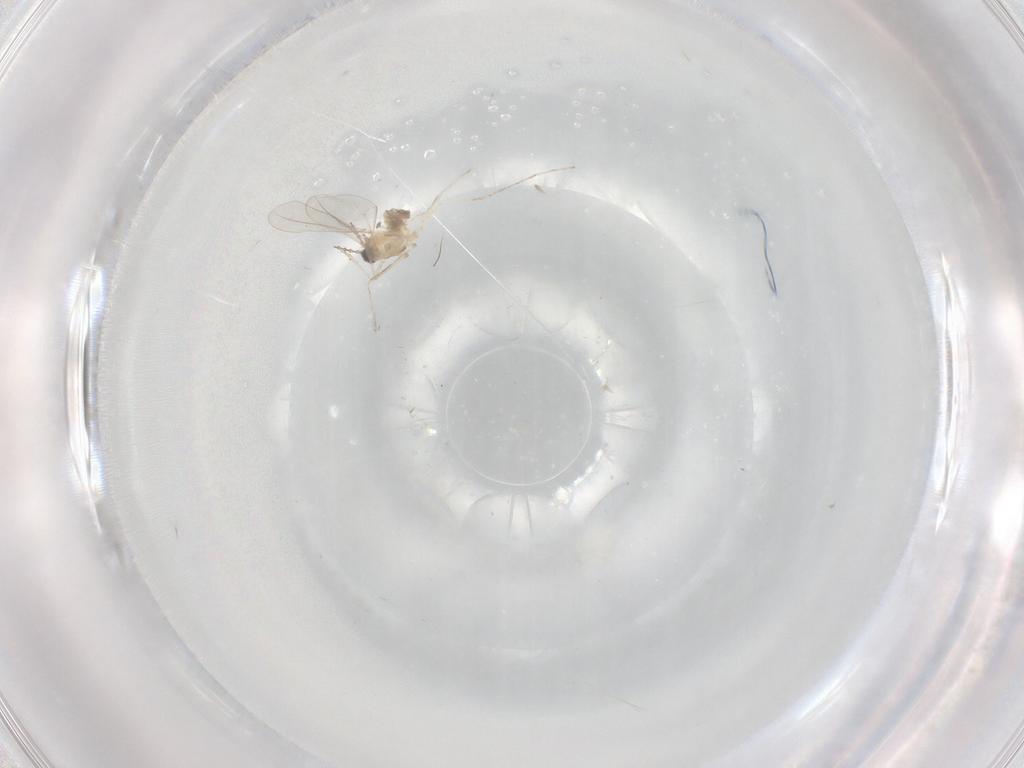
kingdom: Animalia
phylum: Arthropoda
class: Insecta
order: Diptera
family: Cecidomyiidae
